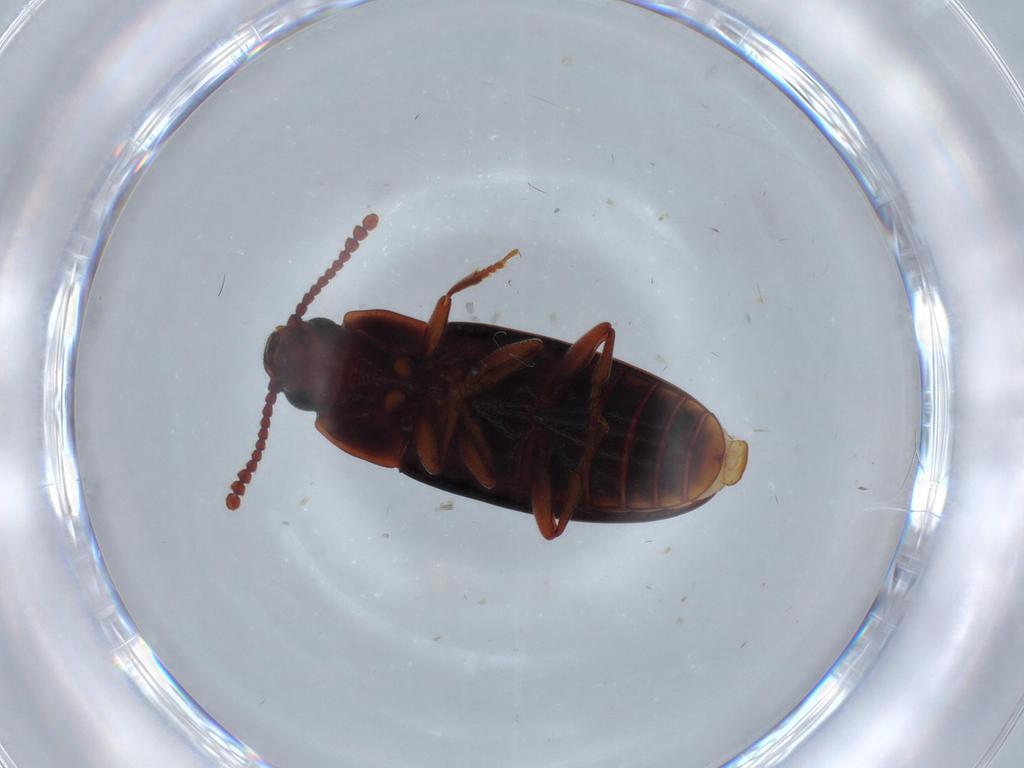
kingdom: Animalia
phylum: Arthropoda
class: Insecta
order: Coleoptera
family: Erotylidae
